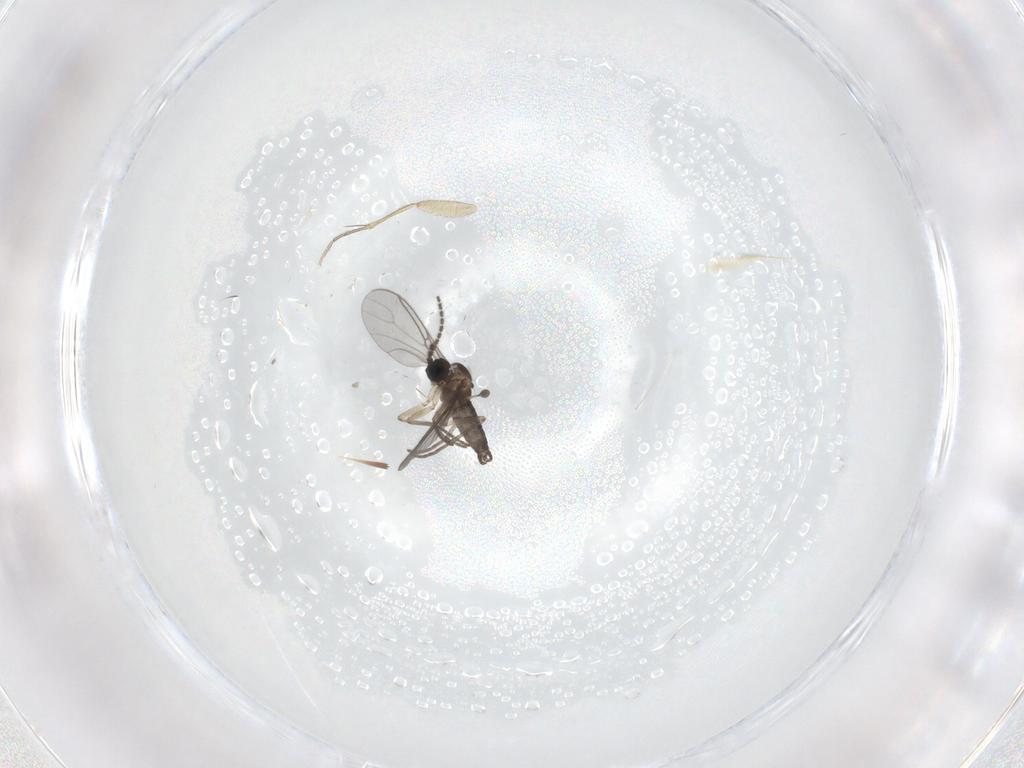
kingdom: Animalia
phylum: Arthropoda
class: Insecta
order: Diptera
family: Sciaridae
